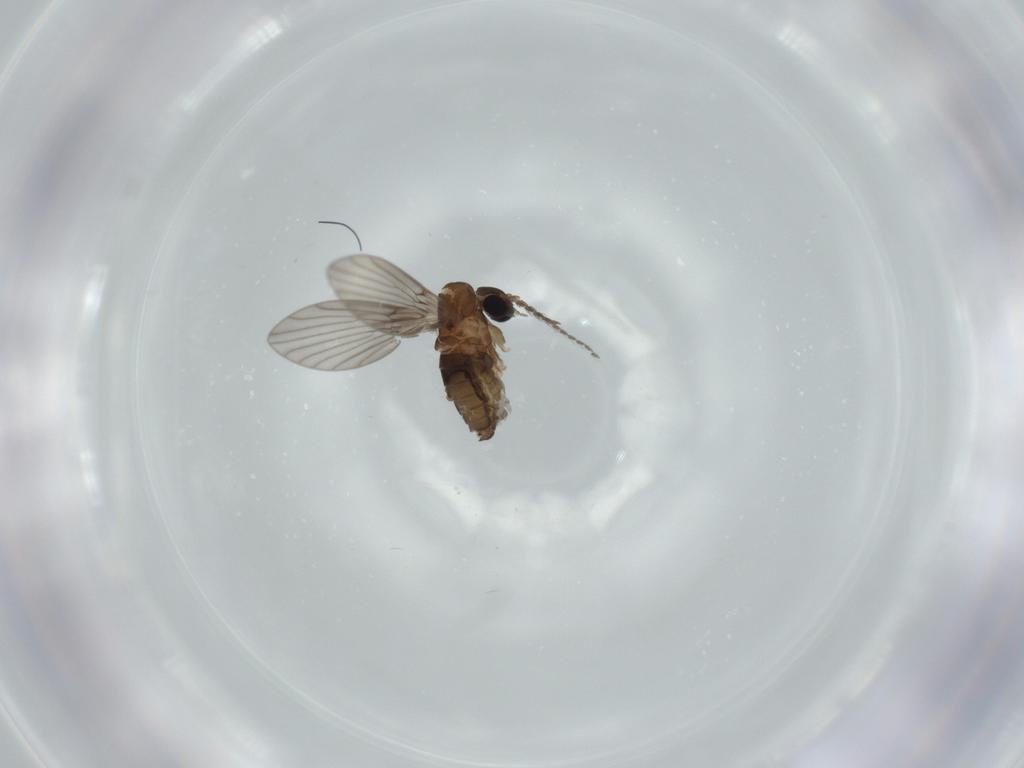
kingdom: Animalia
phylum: Arthropoda
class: Insecta
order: Diptera
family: Psychodidae
